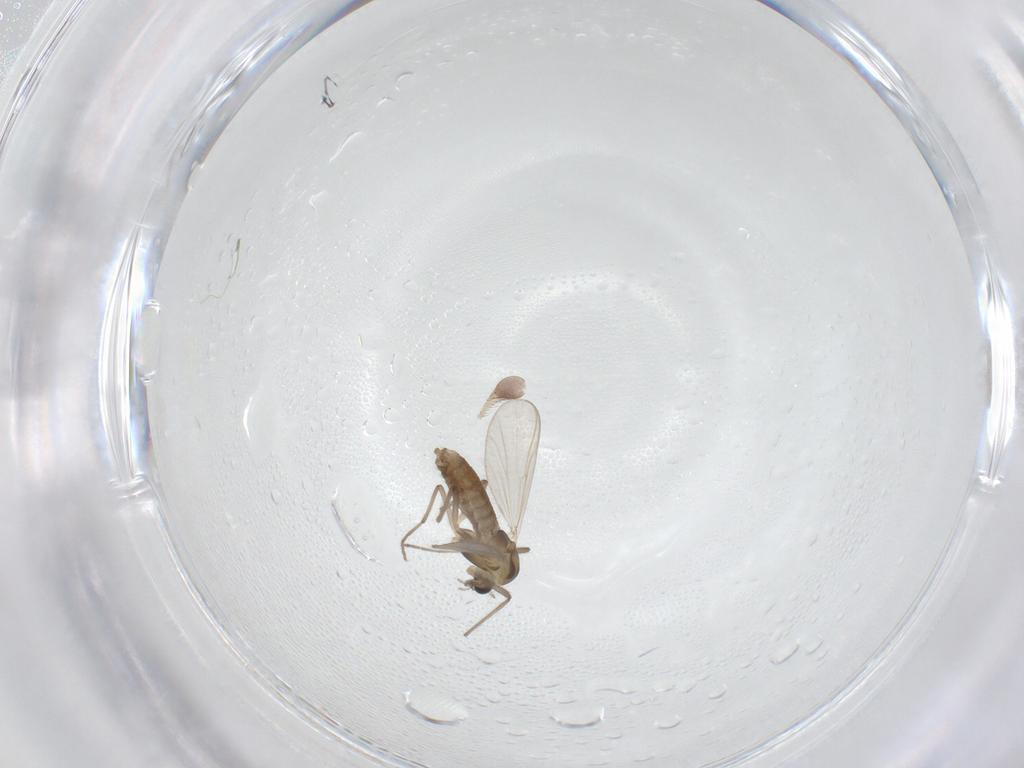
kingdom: Animalia
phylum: Arthropoda
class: Insecta
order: Diptera
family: Chironomidae
